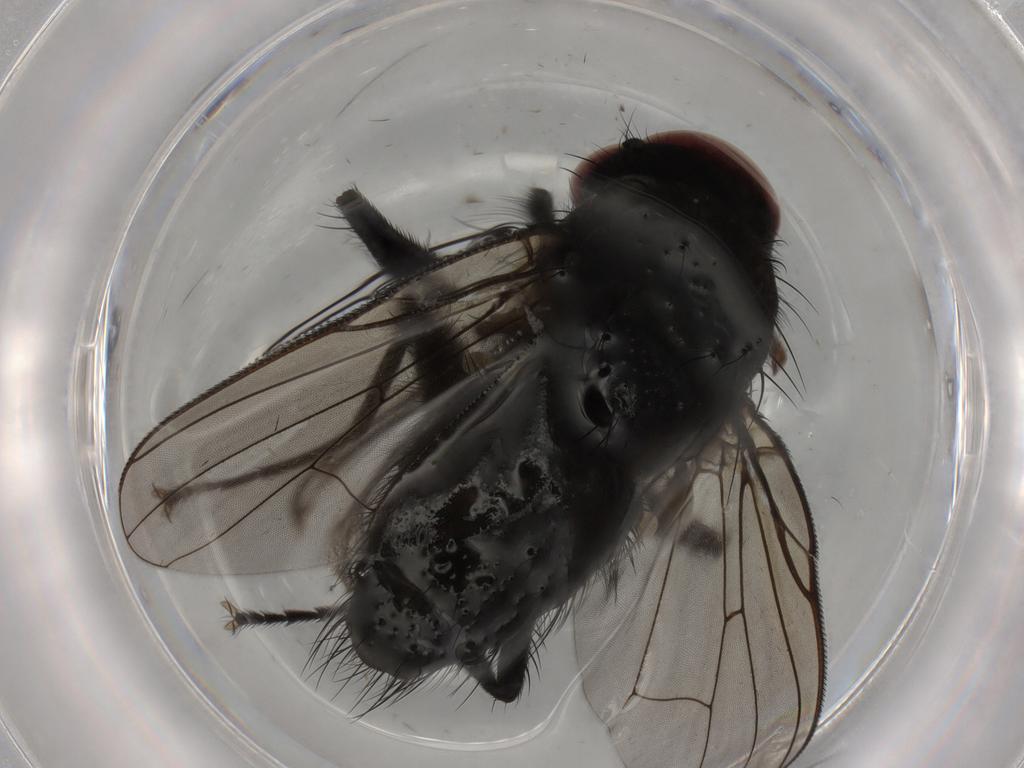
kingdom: Animalia
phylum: Arthropoda
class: Insecta
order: Diptera
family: Muscidae
